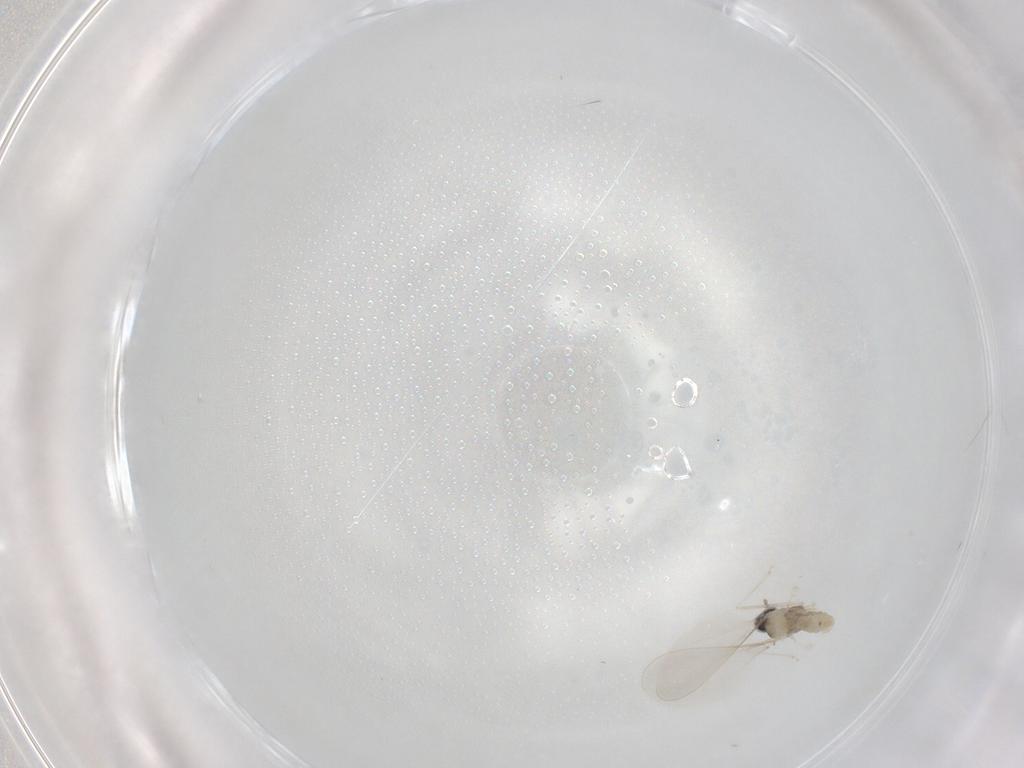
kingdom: Animalia
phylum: Arthropoda
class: Insecta
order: Diptera
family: Cecidomyiidae
